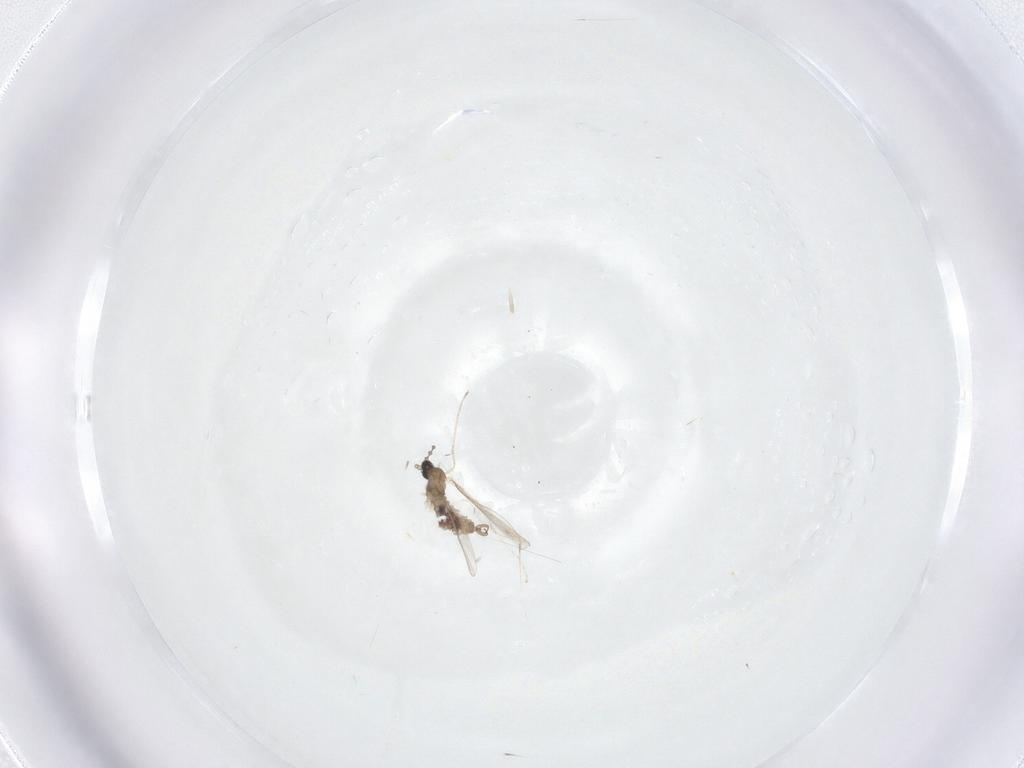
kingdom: Animalia
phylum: Arthropoda
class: Insecta
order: Diptera
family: Cecidomyiidae
